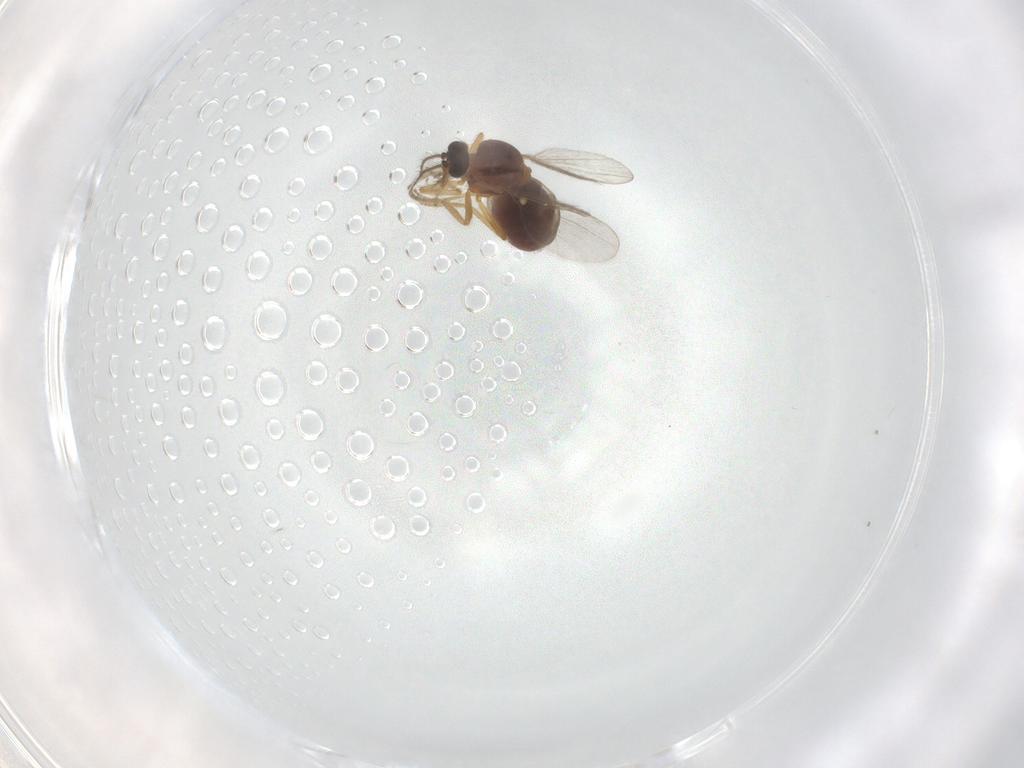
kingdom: Animalia
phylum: Arthropoda
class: Insecta
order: Diptera
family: Ceratopogonidae
